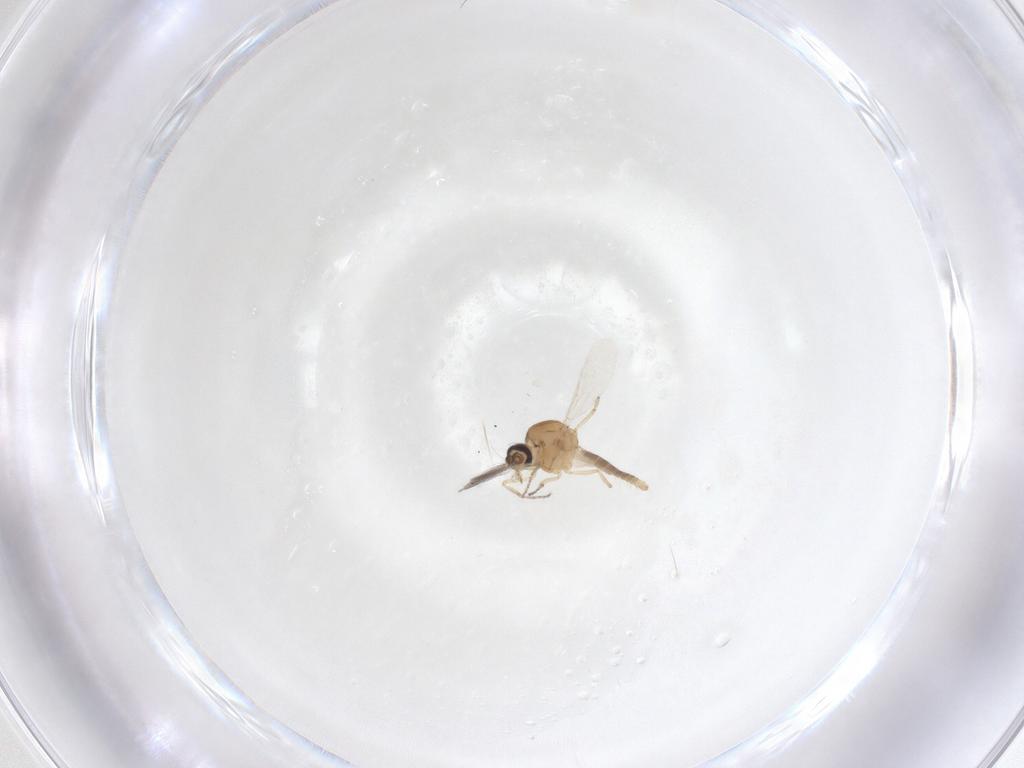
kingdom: Animalia
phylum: Arthropoda
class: Insecta
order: Diptera
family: Ceratopogonidae
